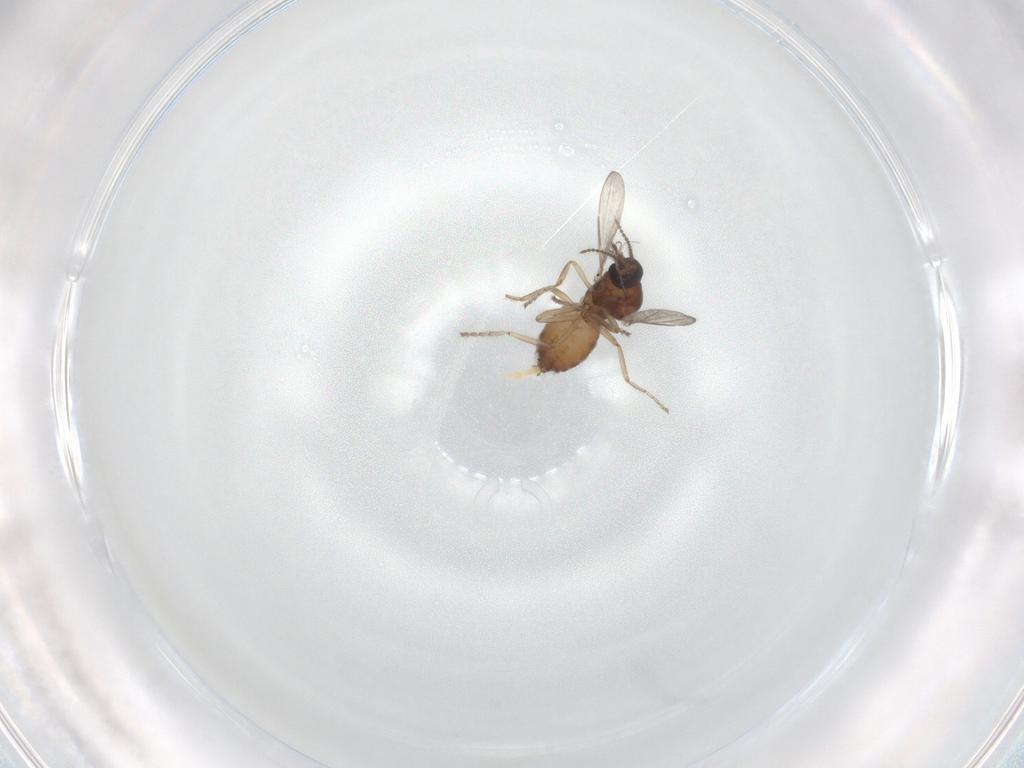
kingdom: Animalia
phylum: Arthropoda
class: Insecta
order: Diptera
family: Ceratopogonidae
